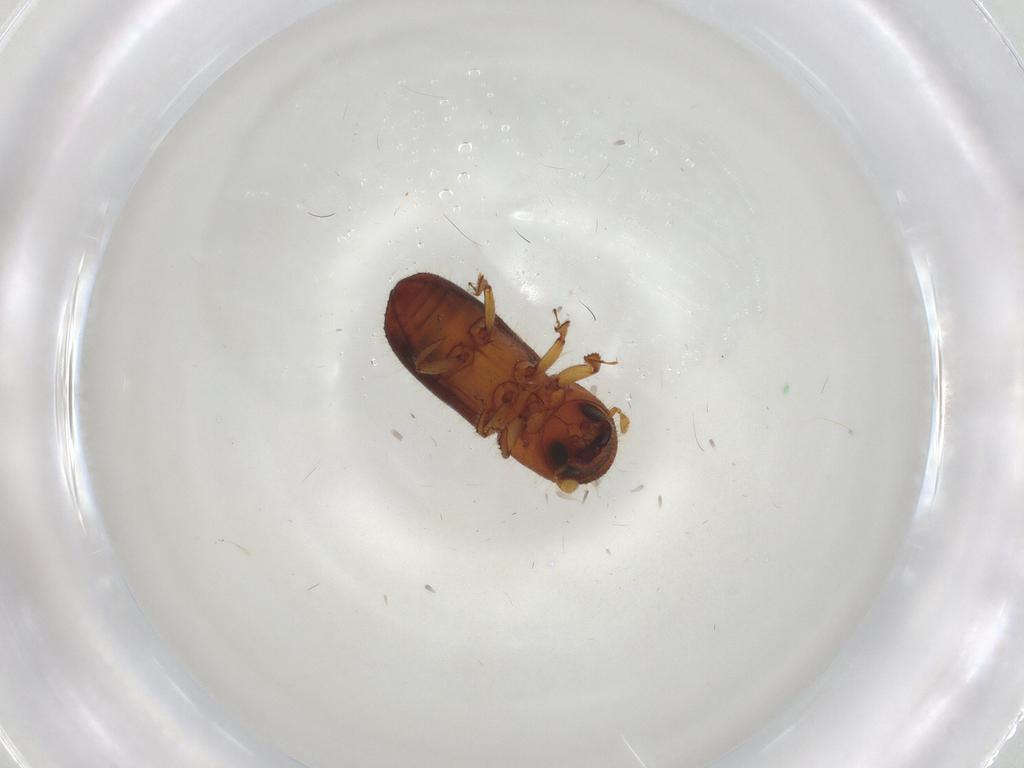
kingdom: Animalia
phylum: Arthropoda
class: Insecta
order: Coleoptera
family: Curculionidae
